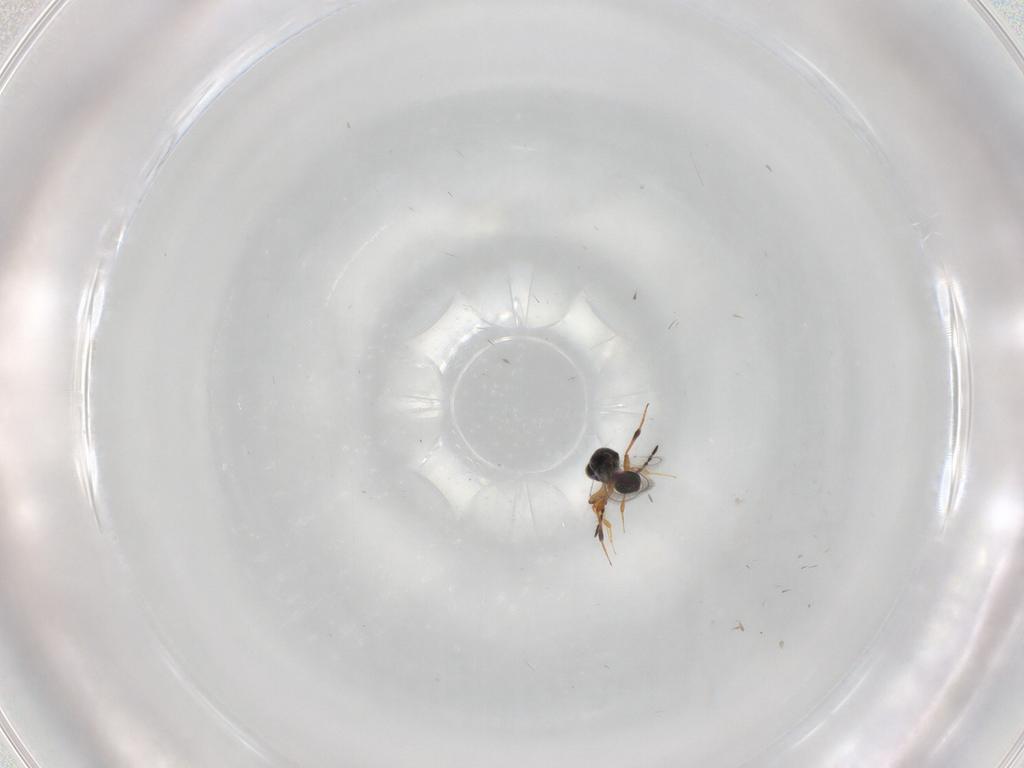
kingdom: Animalia
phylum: Arthropoda
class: Insecta
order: Hymenoptera
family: Platygastridae
